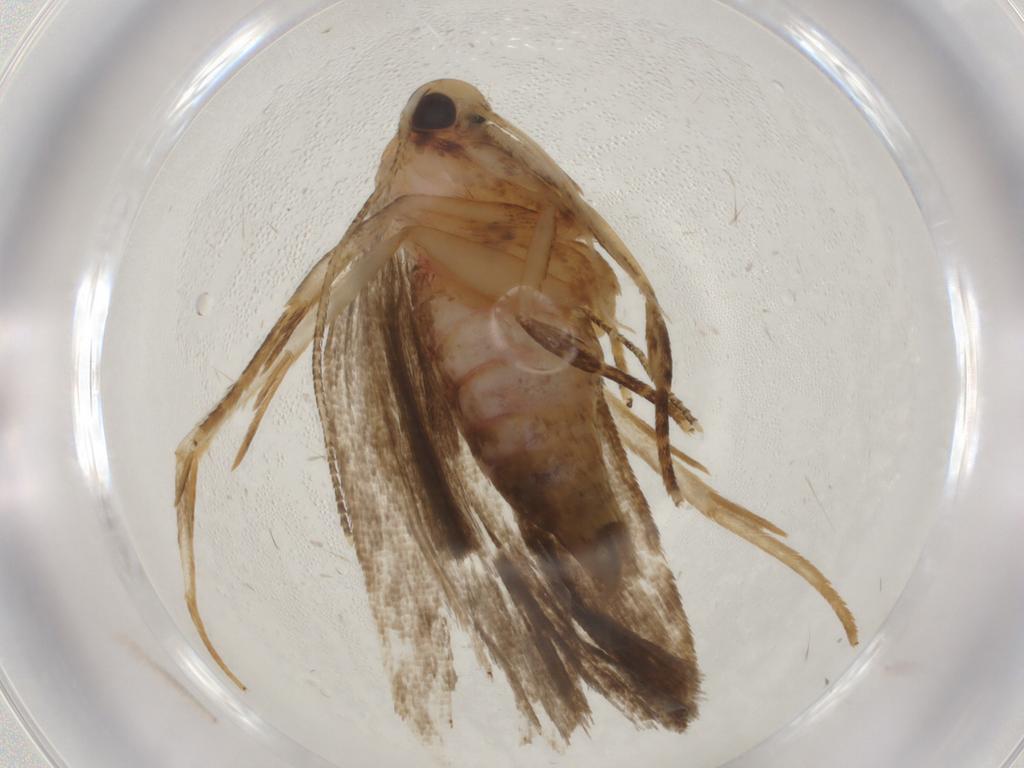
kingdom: Animalia
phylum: Arthropoda
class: Insecta
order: Lepidoptera
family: Autostichidae
